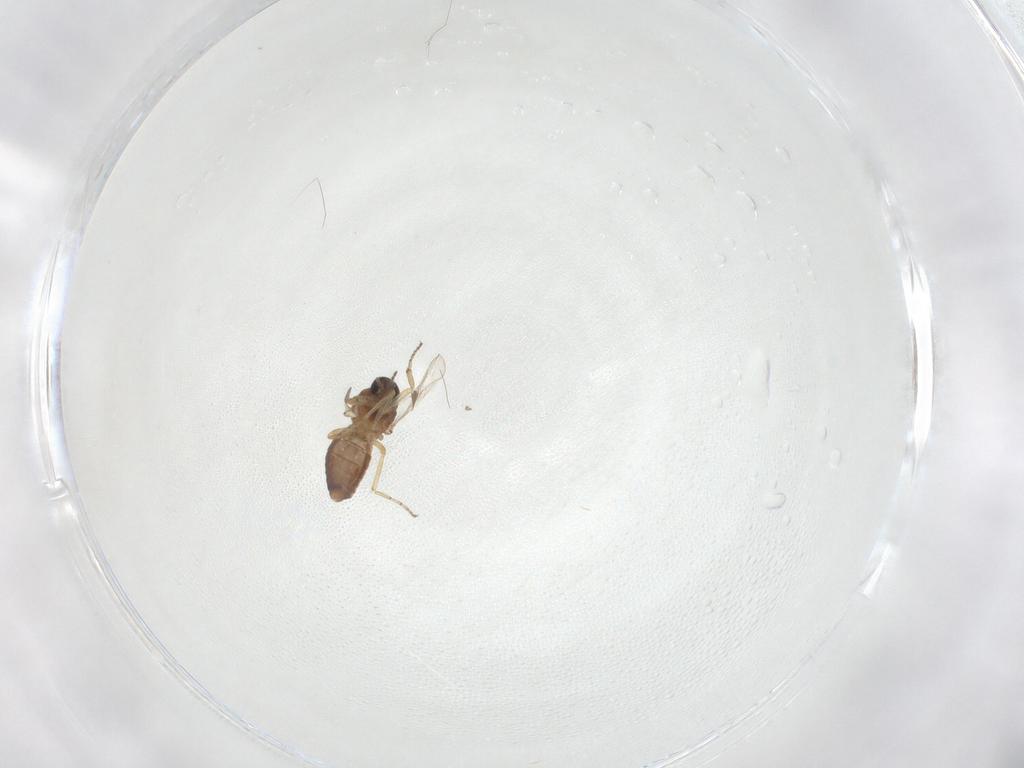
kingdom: Animalia
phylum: Arthropoda
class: Insecta
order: Diptera
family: Ceratopogonidae
